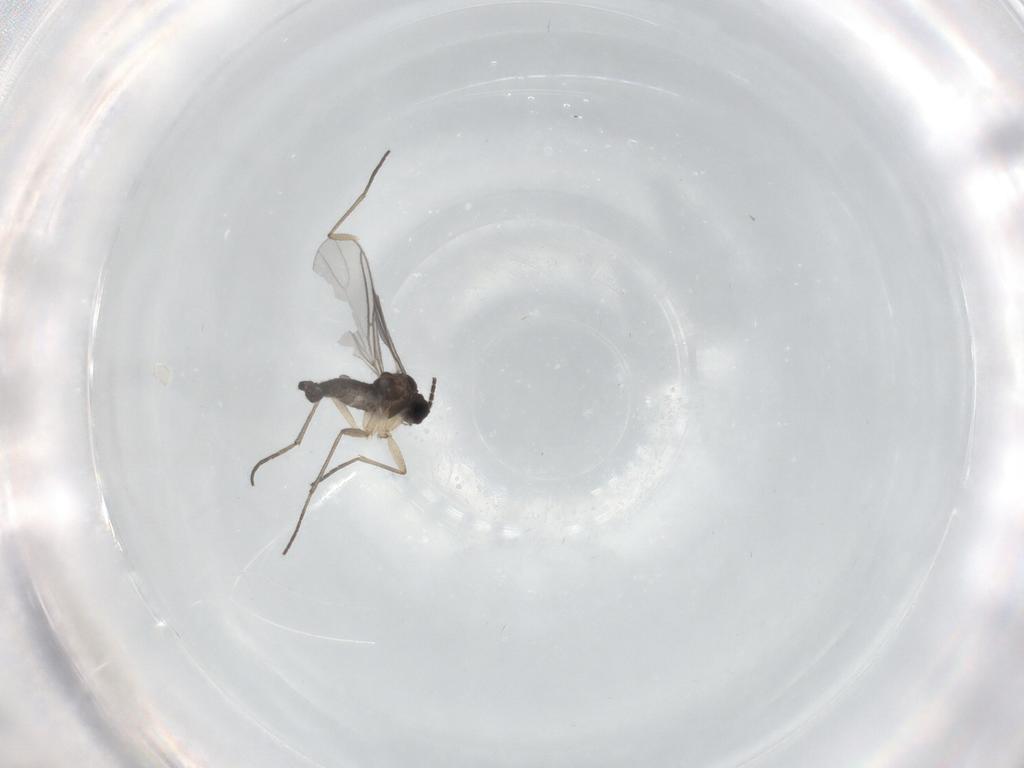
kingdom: Animalia
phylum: Arthropoda
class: Insecta
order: Diptera
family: Sciaridae
